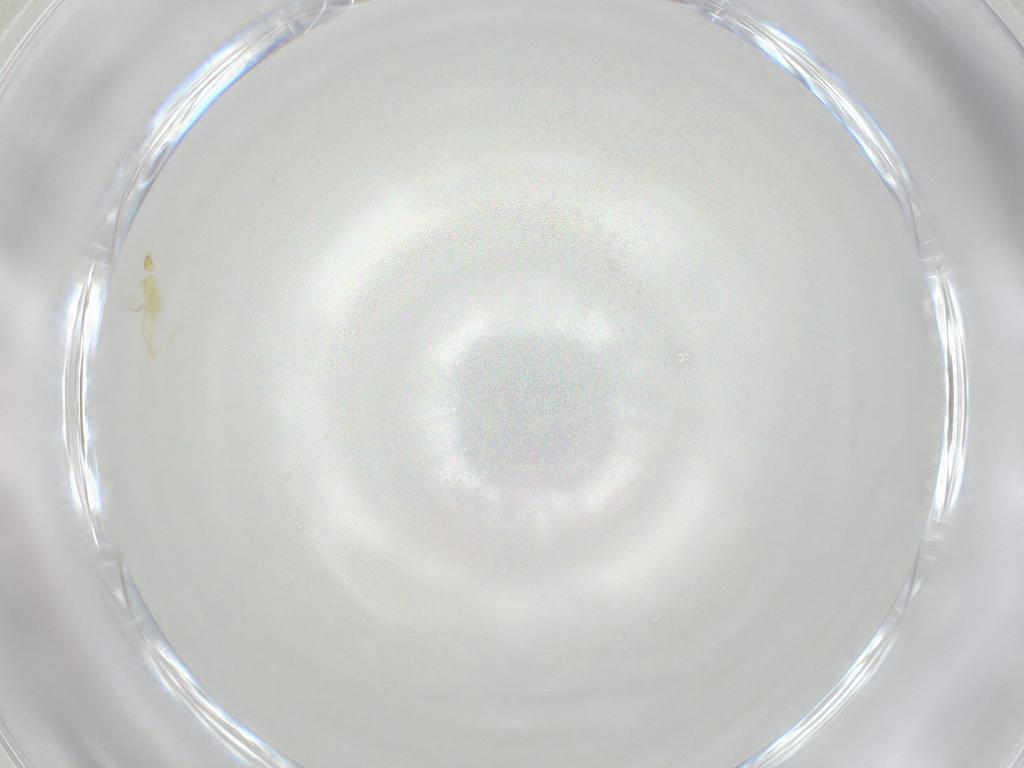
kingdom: Animalia
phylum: Arthropoda
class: Arachnida
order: Trombidiformes
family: Erythraeidae
